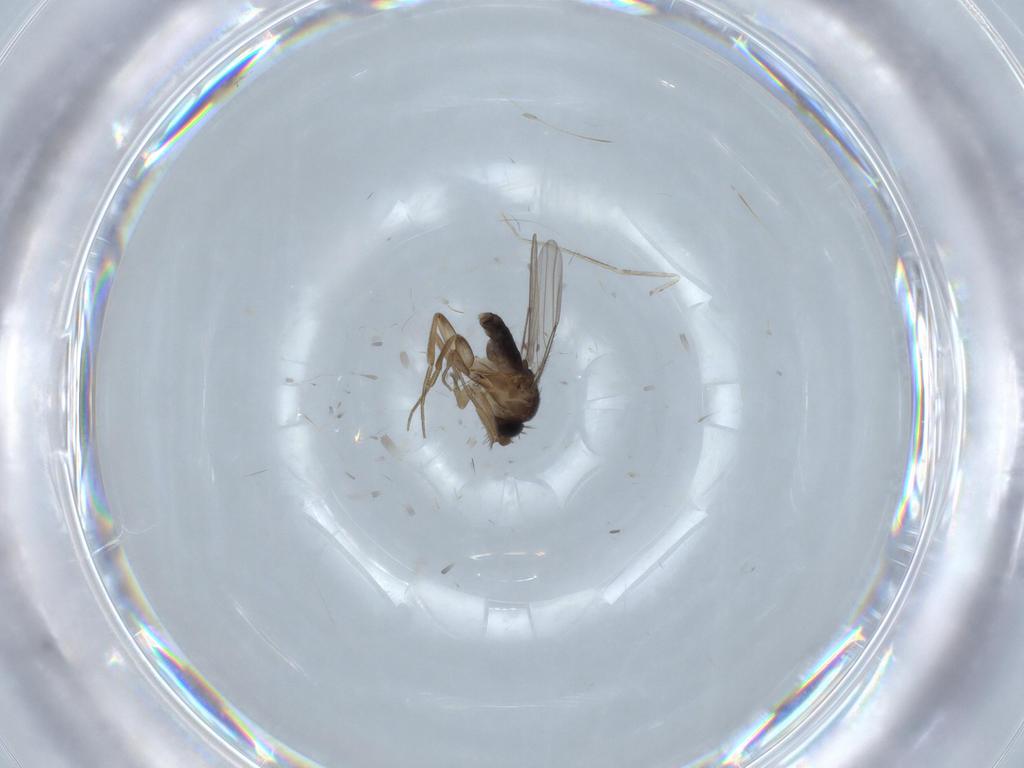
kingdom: Animalia
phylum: Arthropoda
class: Insecta
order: Diptera
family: Phoridae
